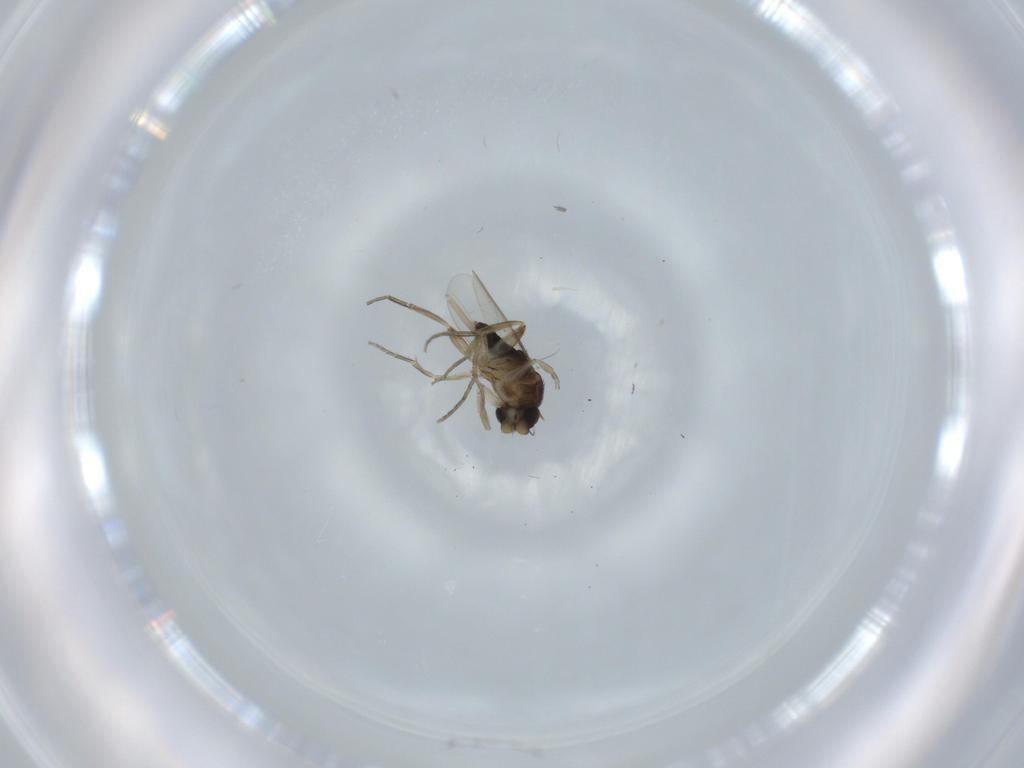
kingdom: Animalia
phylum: Arthropoda
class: Insecta
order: Diptera
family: Phoridae
